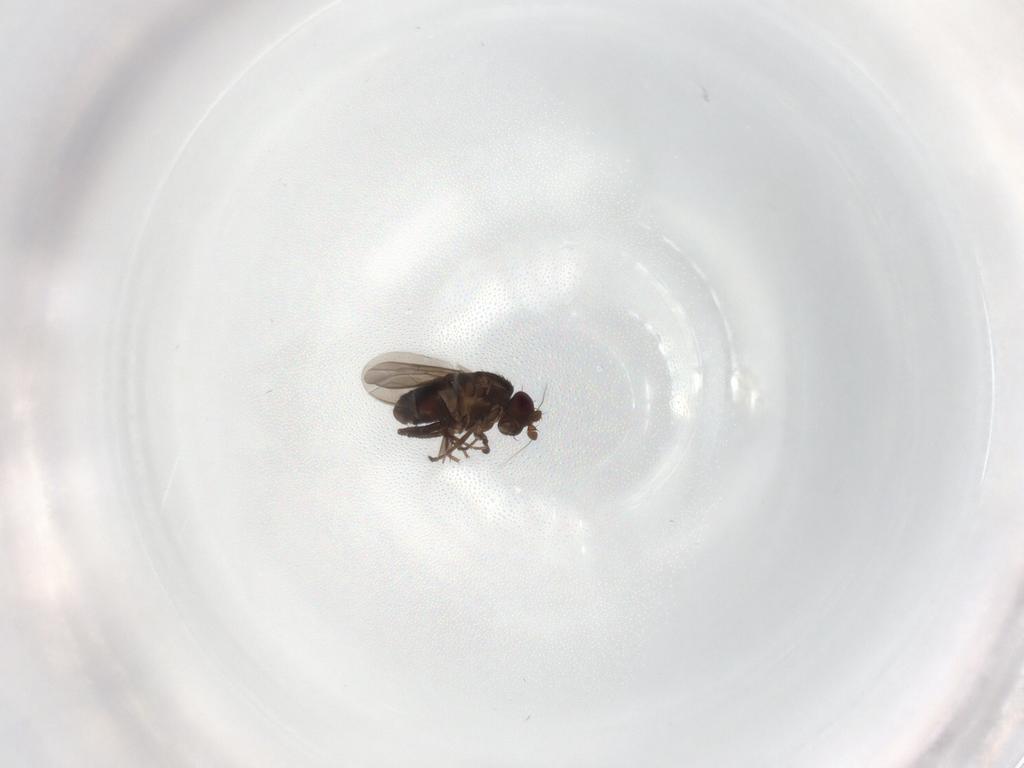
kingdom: Animalia
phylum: Arthropoda
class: Insecta
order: Diptera
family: Sphaeroceridae
